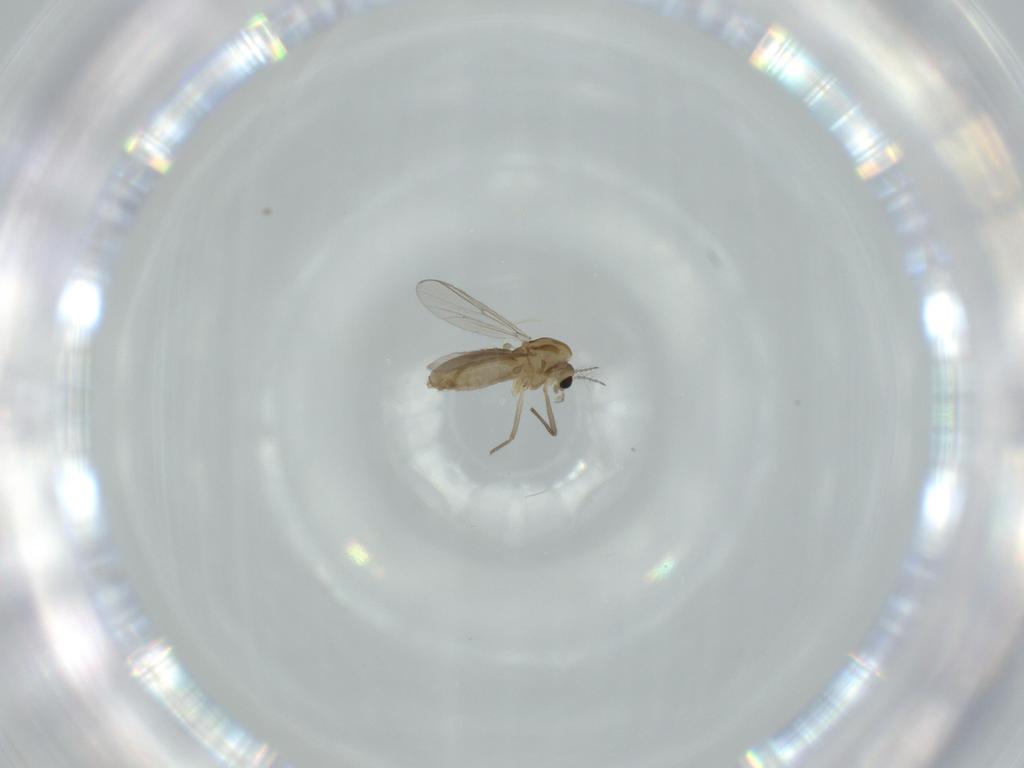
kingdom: Animalia
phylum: Arthropoda
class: Insecta
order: Diptera
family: Chironomidae
